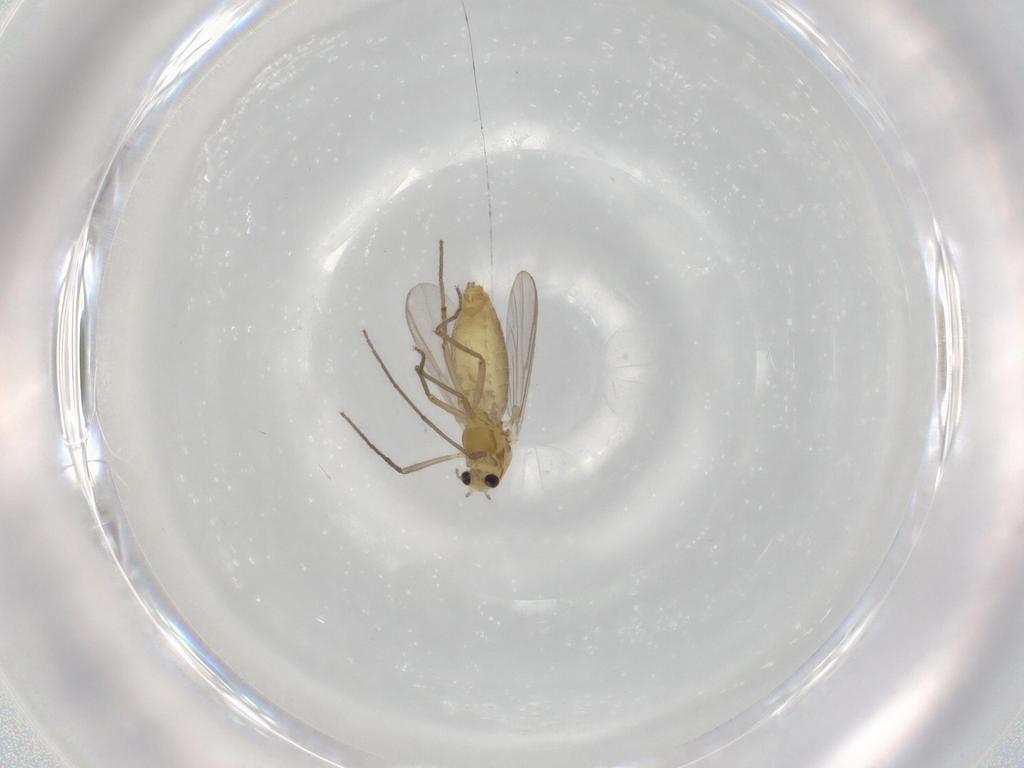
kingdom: Animalia
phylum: Arthropoda
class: Insecta
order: Diptera
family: Chironomidae
